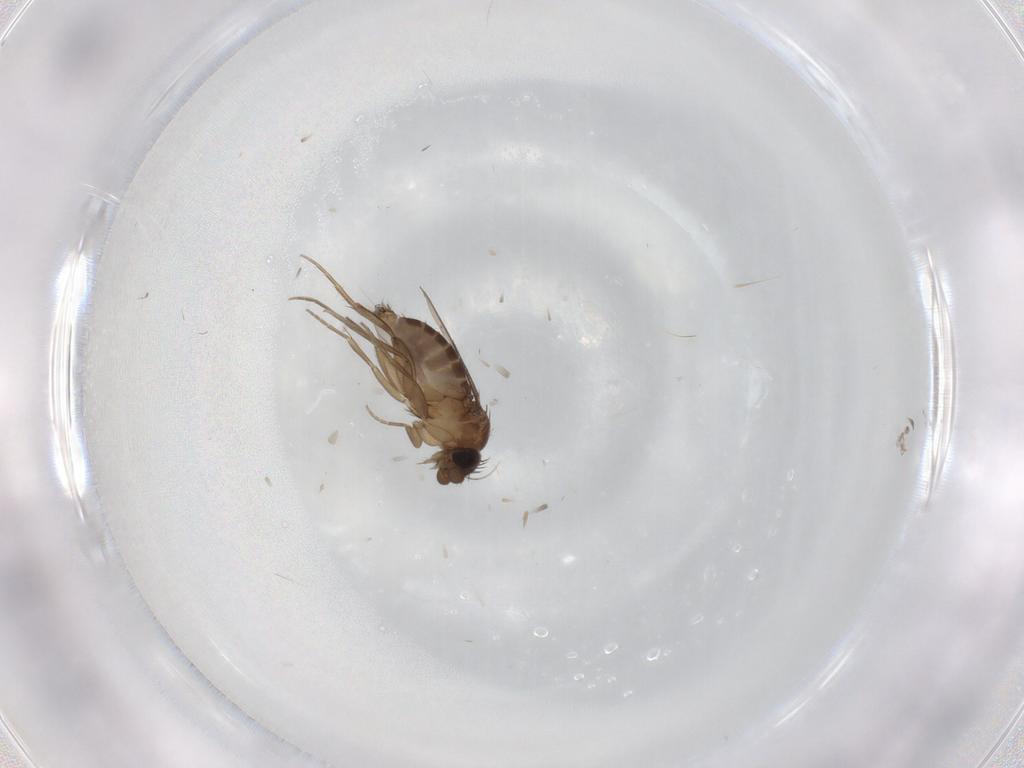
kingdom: Animalia
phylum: Arthropoda
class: Insecta
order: Diptera
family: Phoridae
